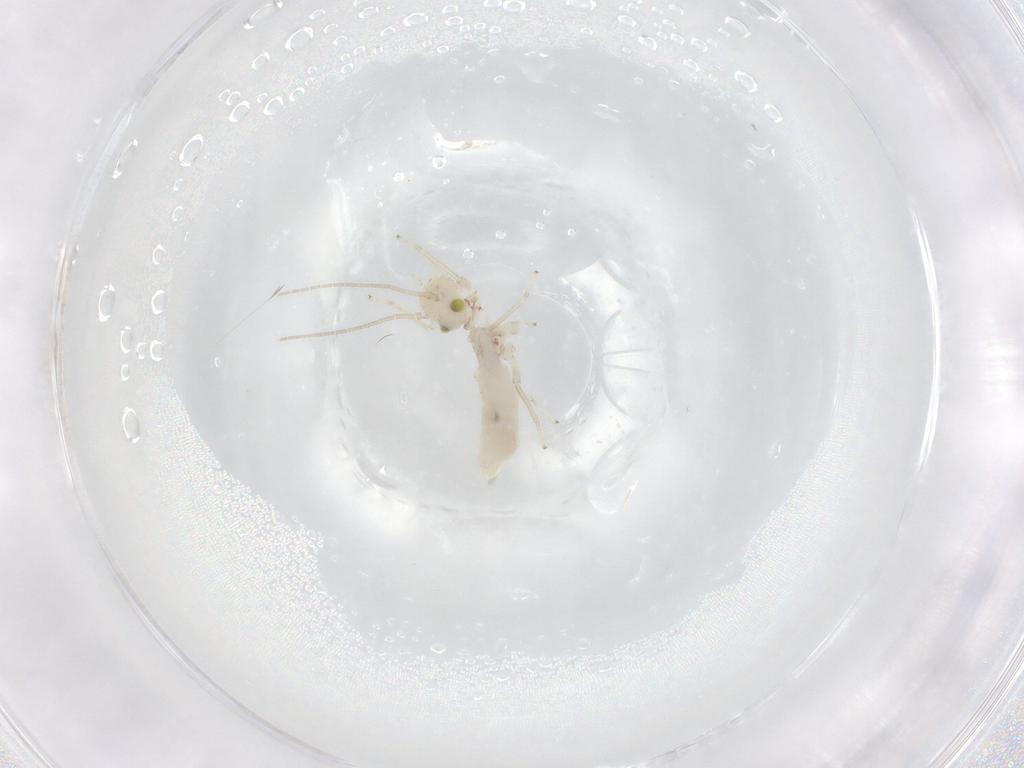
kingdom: Animalia
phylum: Arthropoda
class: Insecta
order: Psocodea
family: Caeciliusidae
